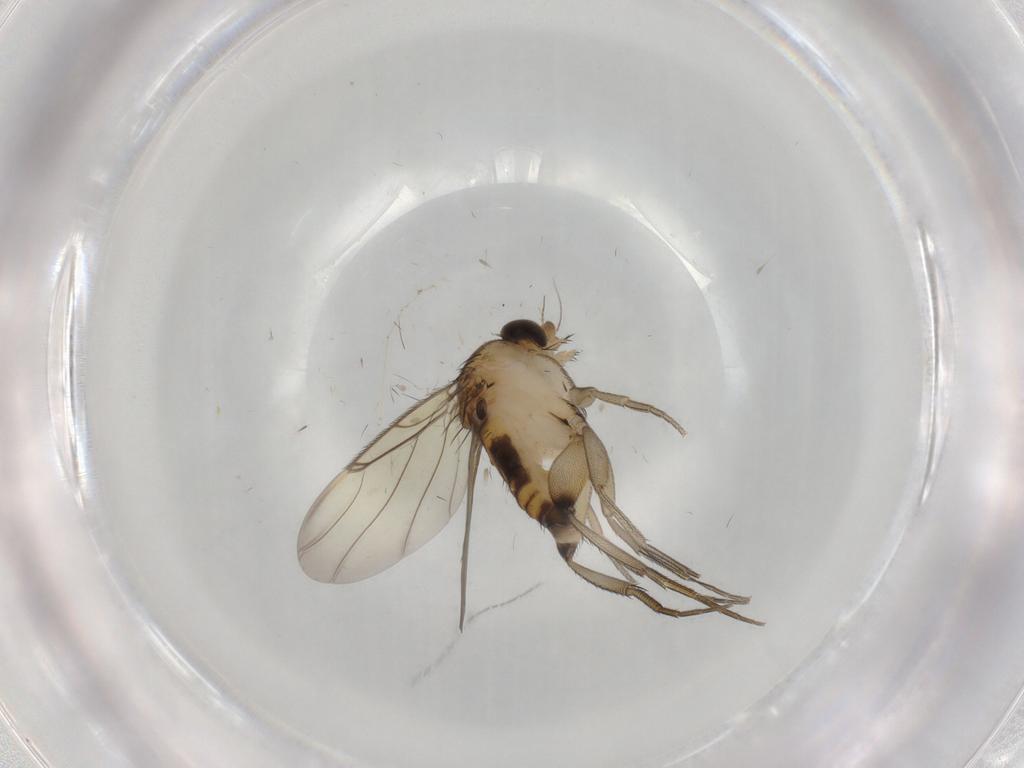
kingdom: Animalia
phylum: Arthropoda
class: Insecta
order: Diptera
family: Phoridae
